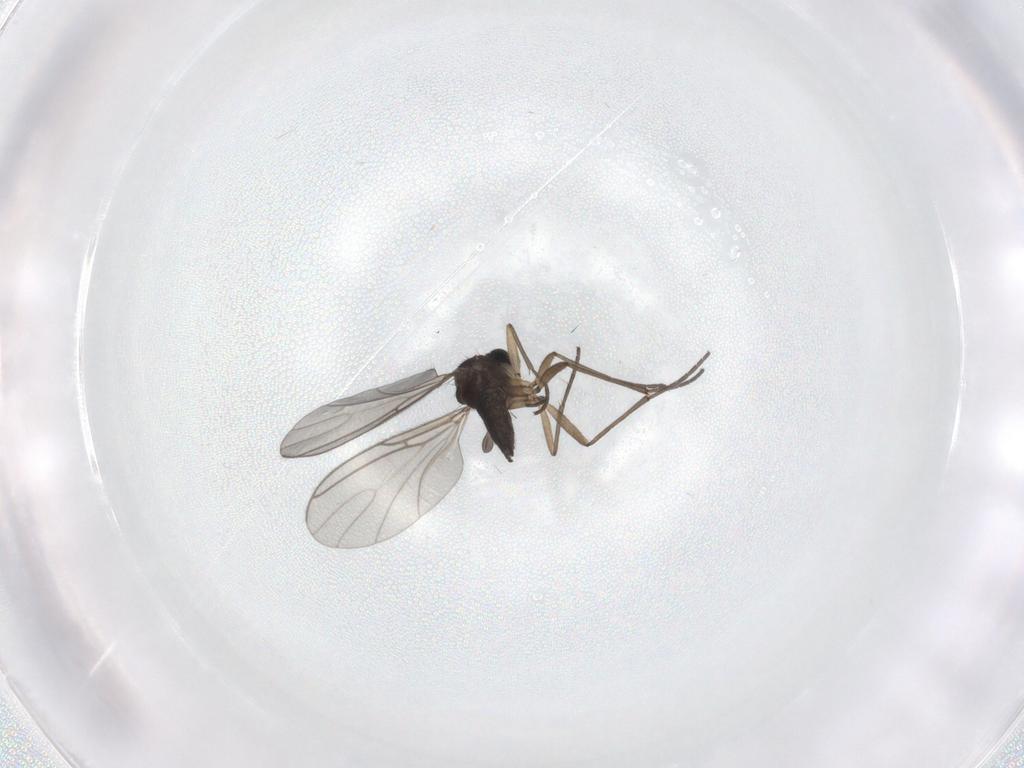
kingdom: Animalia
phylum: Arthropoda
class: Insecta
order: Diptera
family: Sciaridae
